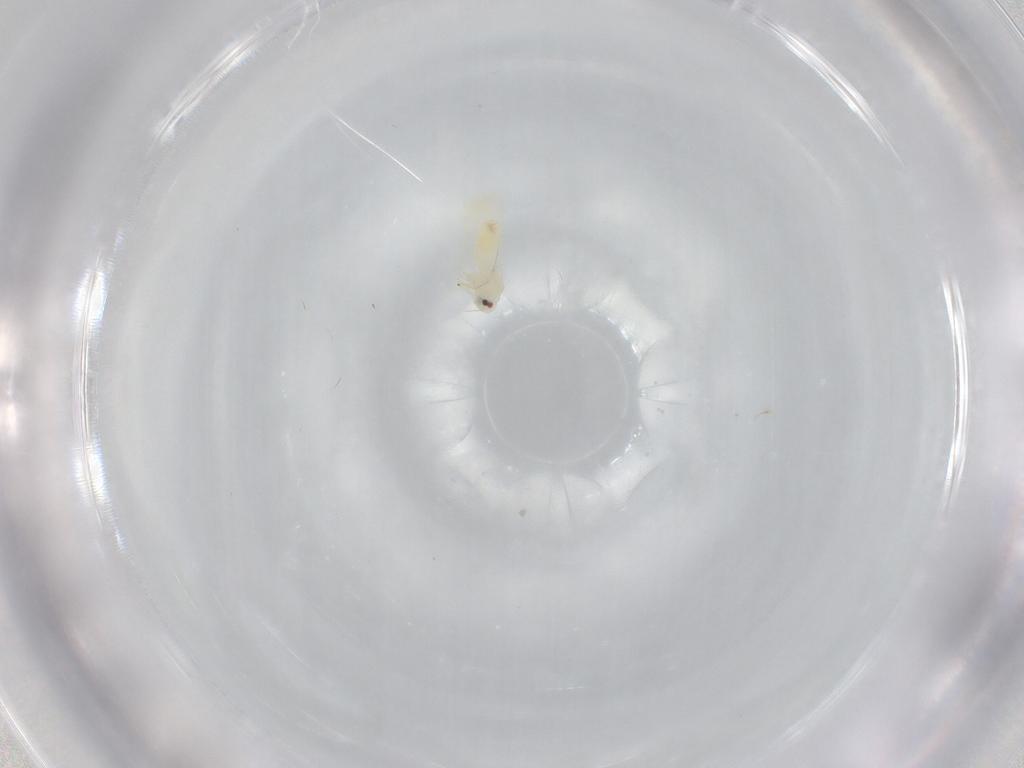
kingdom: Animalia
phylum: Arthropoda
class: Insecta
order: Hemiptera
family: Aleyrodidae
